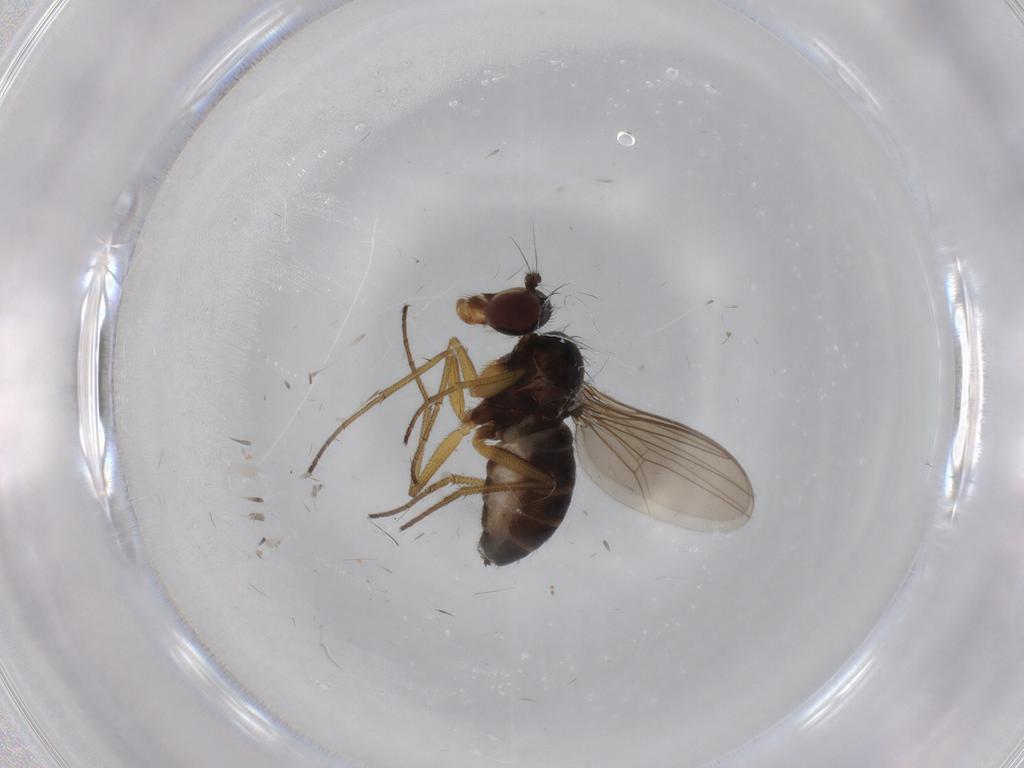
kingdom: Animalia
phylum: Arthropoda
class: Insecta
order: Diptera
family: Dolichopodidae
